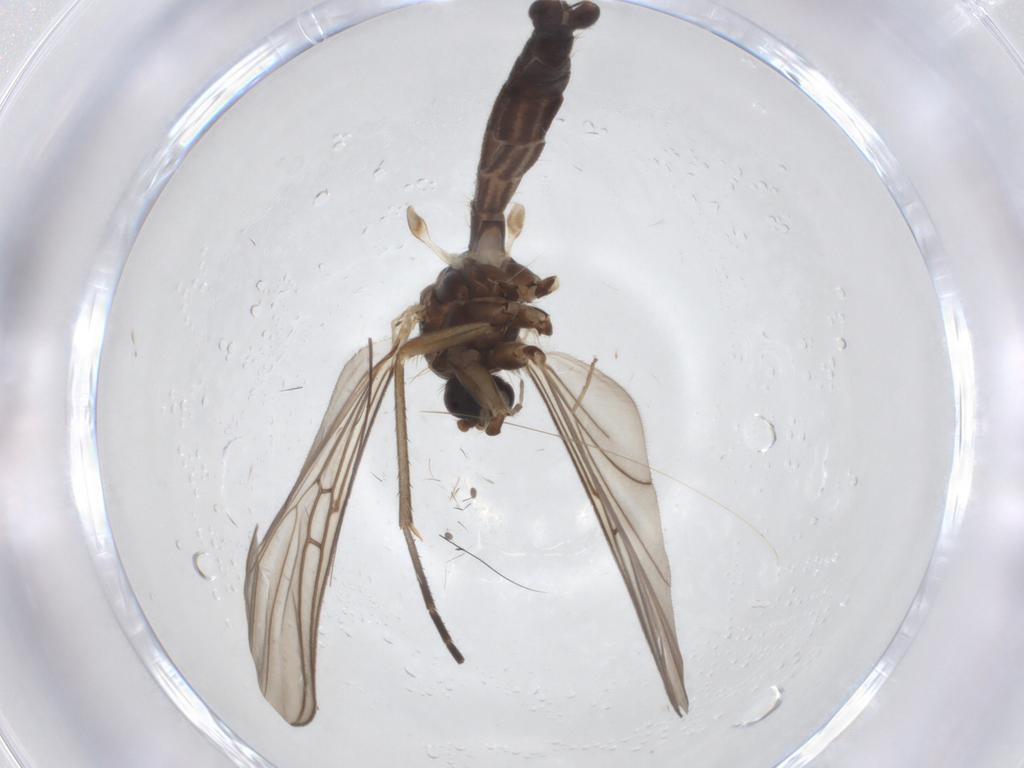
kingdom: Animalia
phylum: Arthropoda
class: Insecta
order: Diptera
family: Ceratopogonidae
